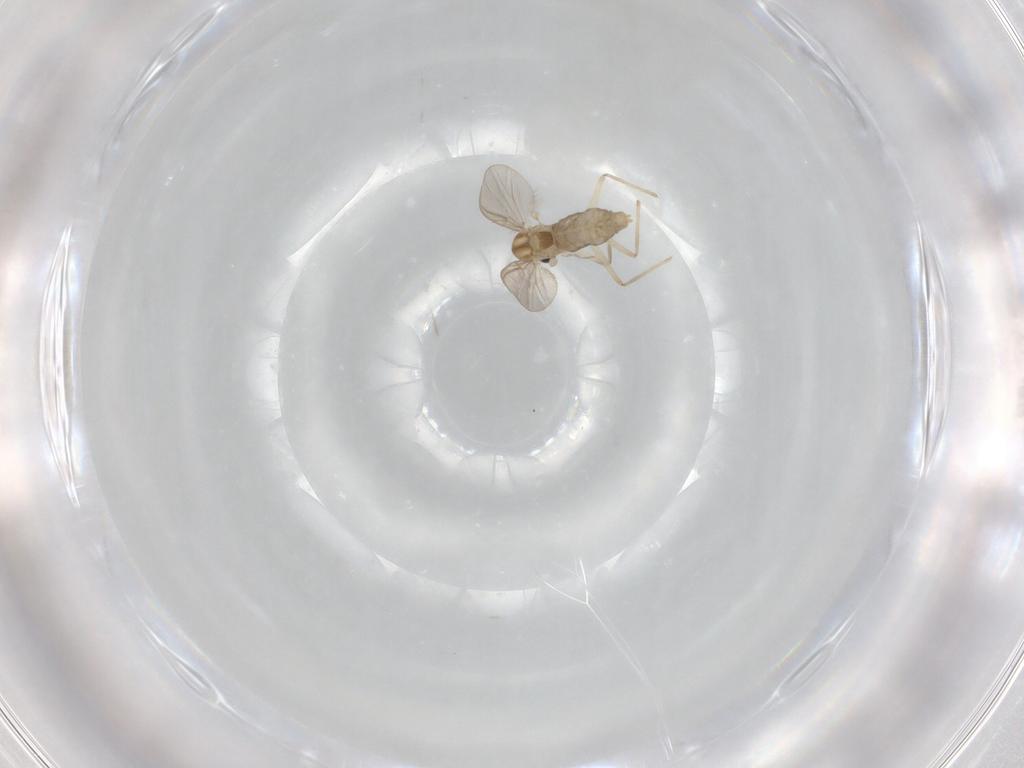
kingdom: Animalia
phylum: Arthropoda
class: Insecta
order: Diptera
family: Chironomidae
